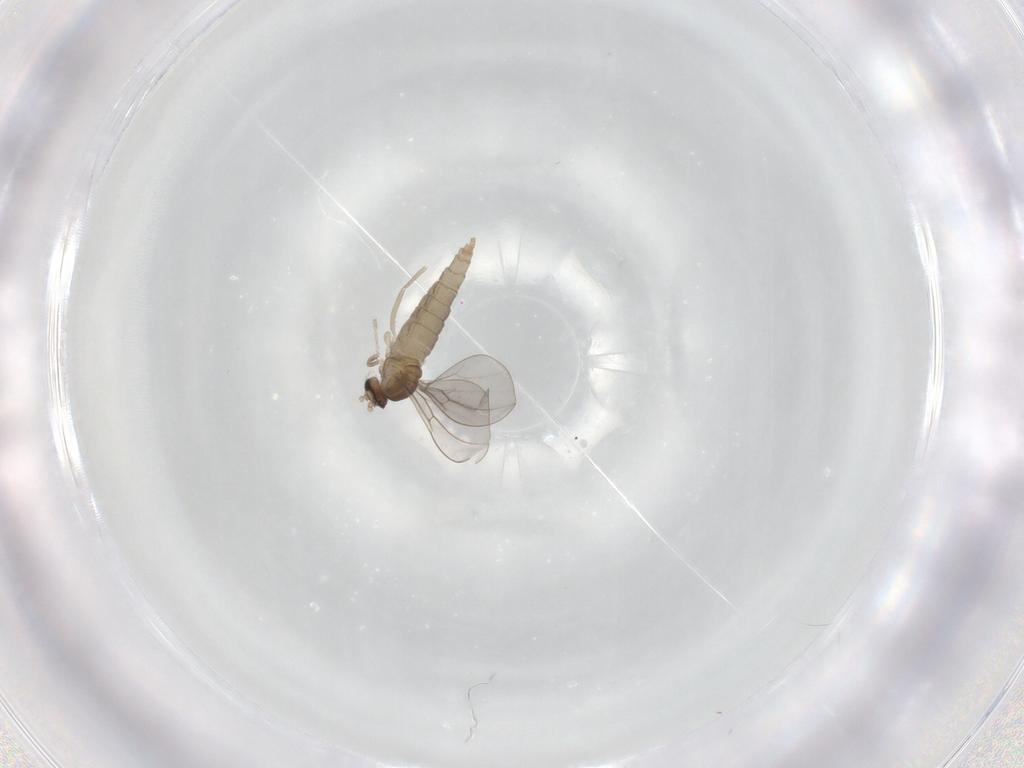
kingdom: Animalia
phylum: Arthropoda
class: Insecta
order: Diptera
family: Cecidomyiidae
